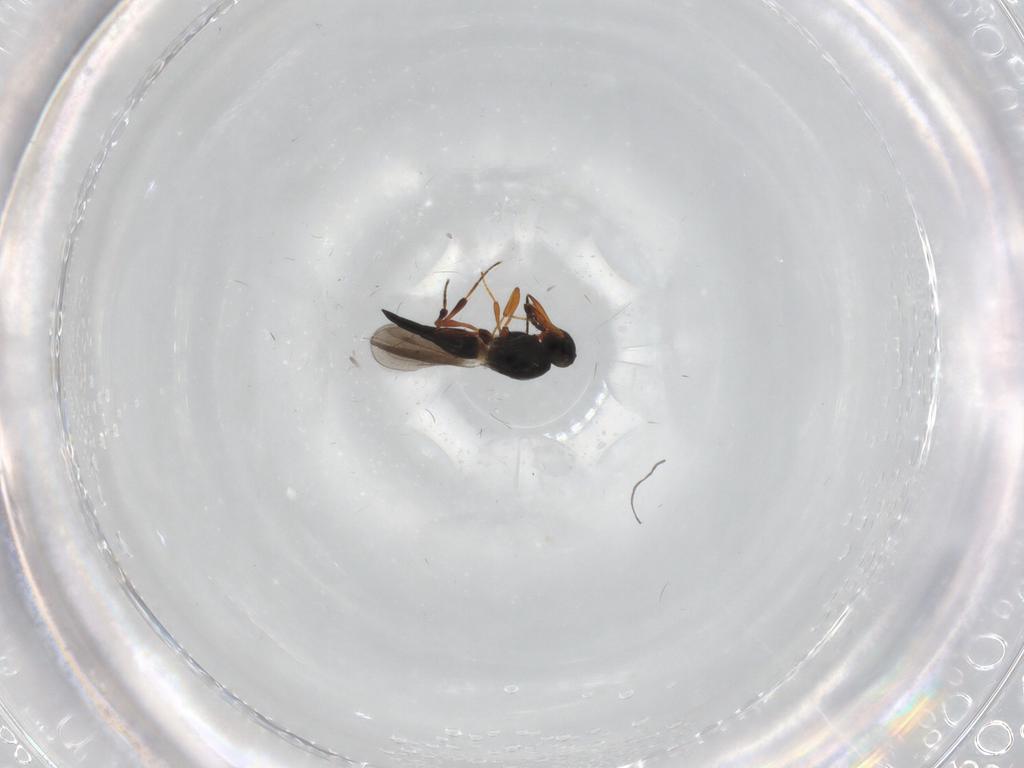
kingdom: Animalia
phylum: Arthropoda
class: Insecta
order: Hymenoptera
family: Platygastridae
